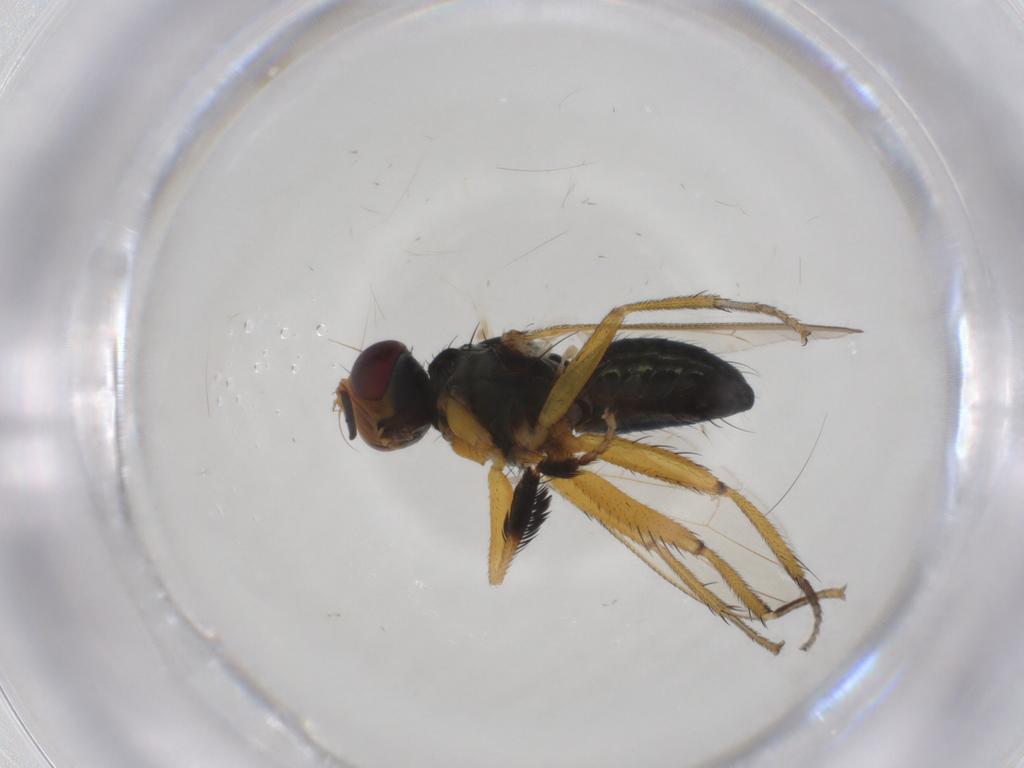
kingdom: Animalia
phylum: Arthropoda
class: Insecta
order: Diptera
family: Muscidae
